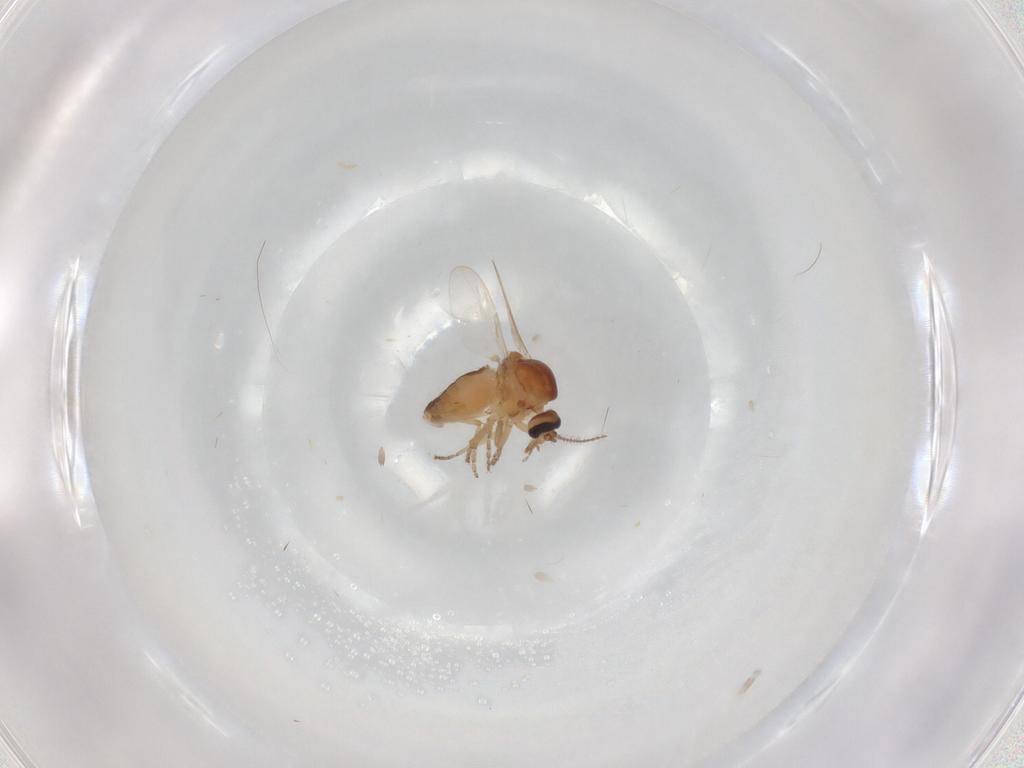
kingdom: Animalia
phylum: Arthropoda
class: Insecta
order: Diptera
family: Ceratopogonidae
